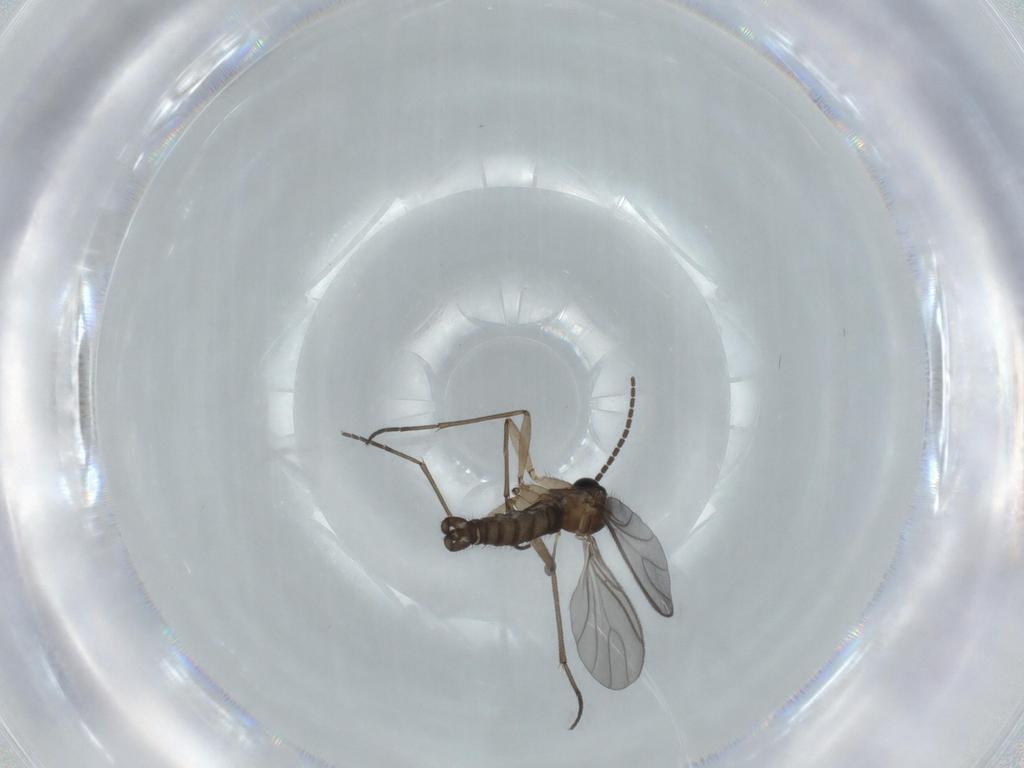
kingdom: Animalia
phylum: Arthropoda
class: Insecta
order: Diptera
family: Sciaridae
